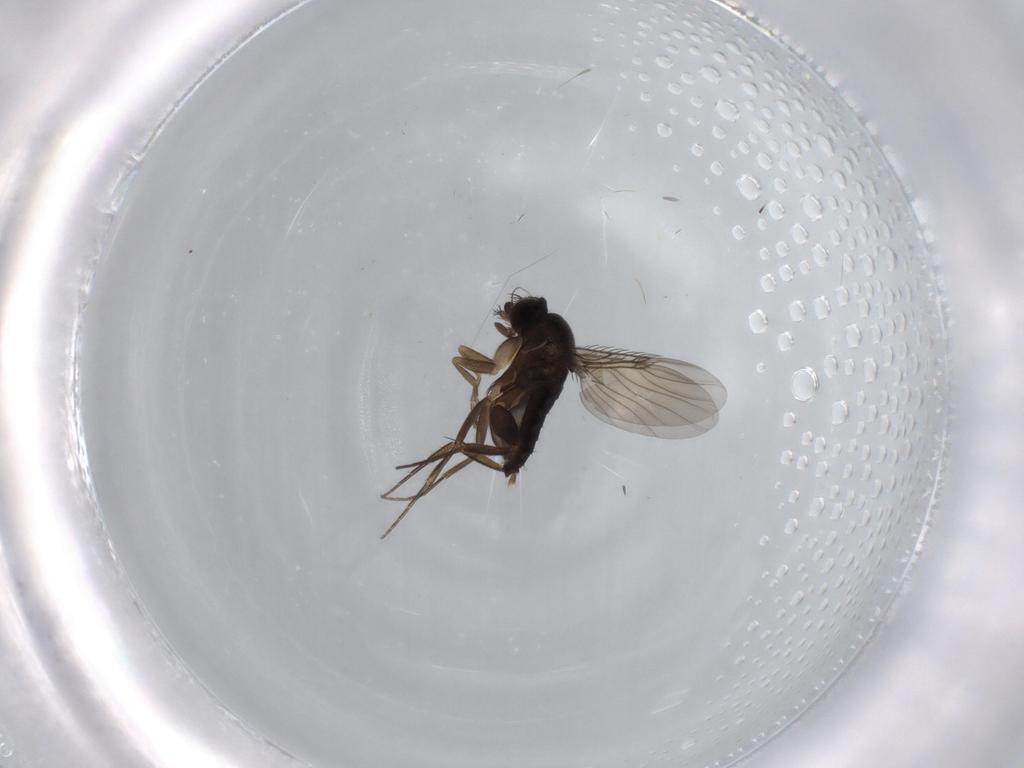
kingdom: Animalia
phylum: Arthropoda
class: Insecta
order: Diptera
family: Phoridae
